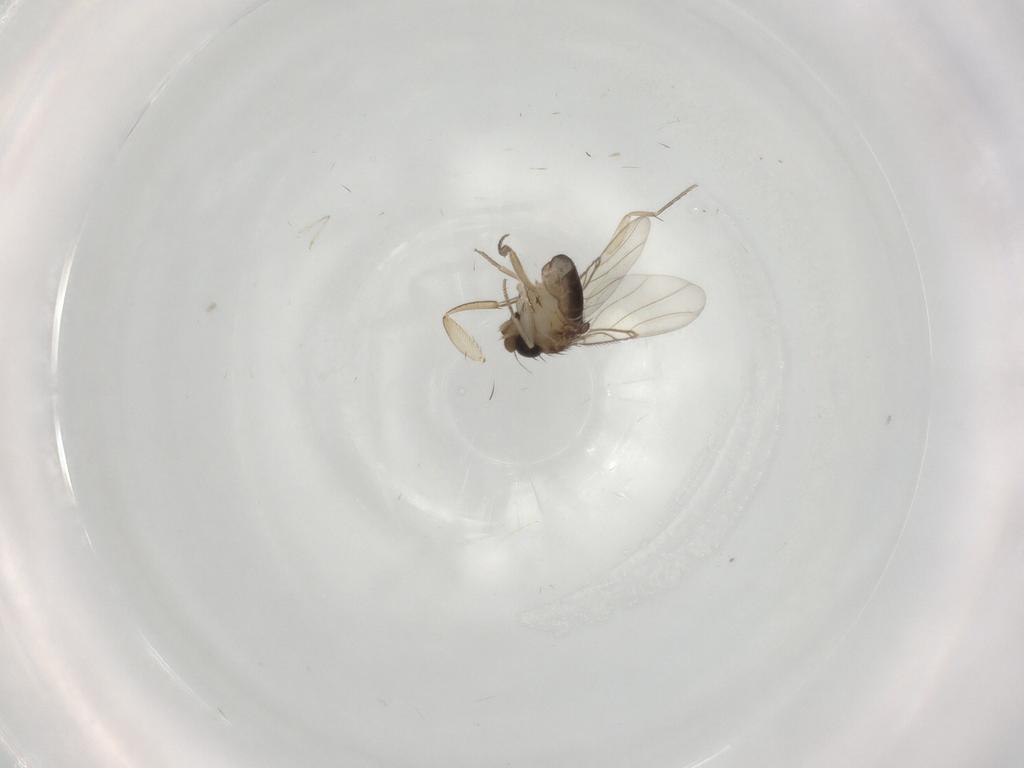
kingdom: Animalia
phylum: Arthropoda
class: Insecta
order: Diptera
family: Cecidomyiidae
